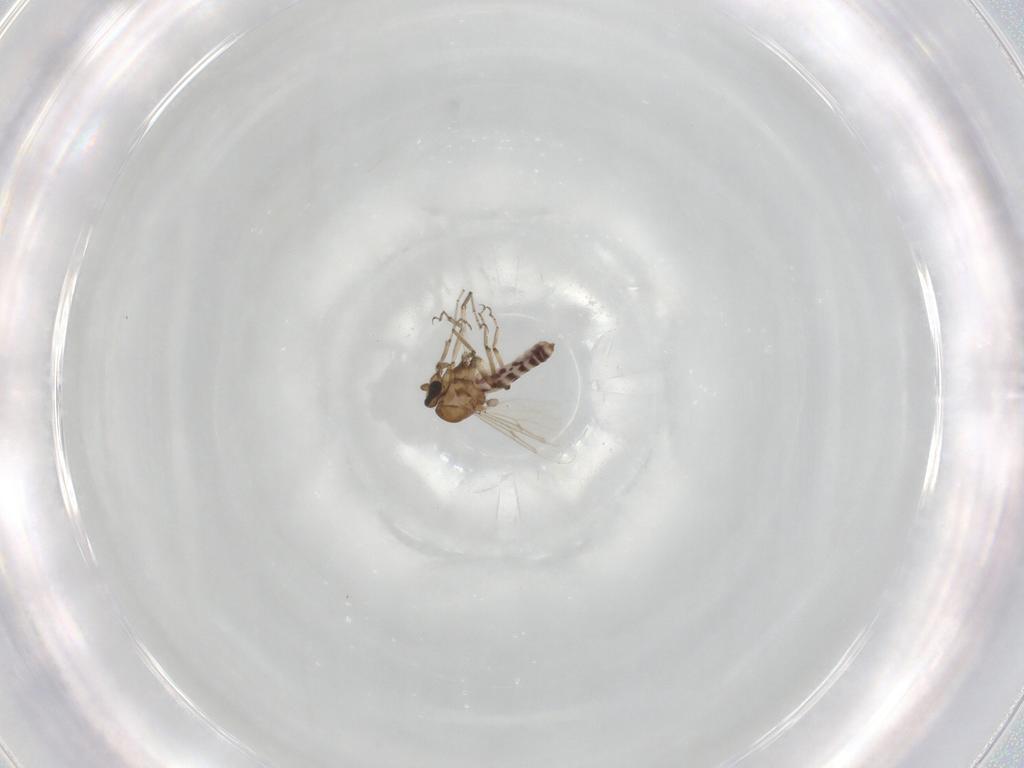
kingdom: Animalia
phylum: Arthropoda
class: Insecta
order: Diptera
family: Ceratopogonidae
